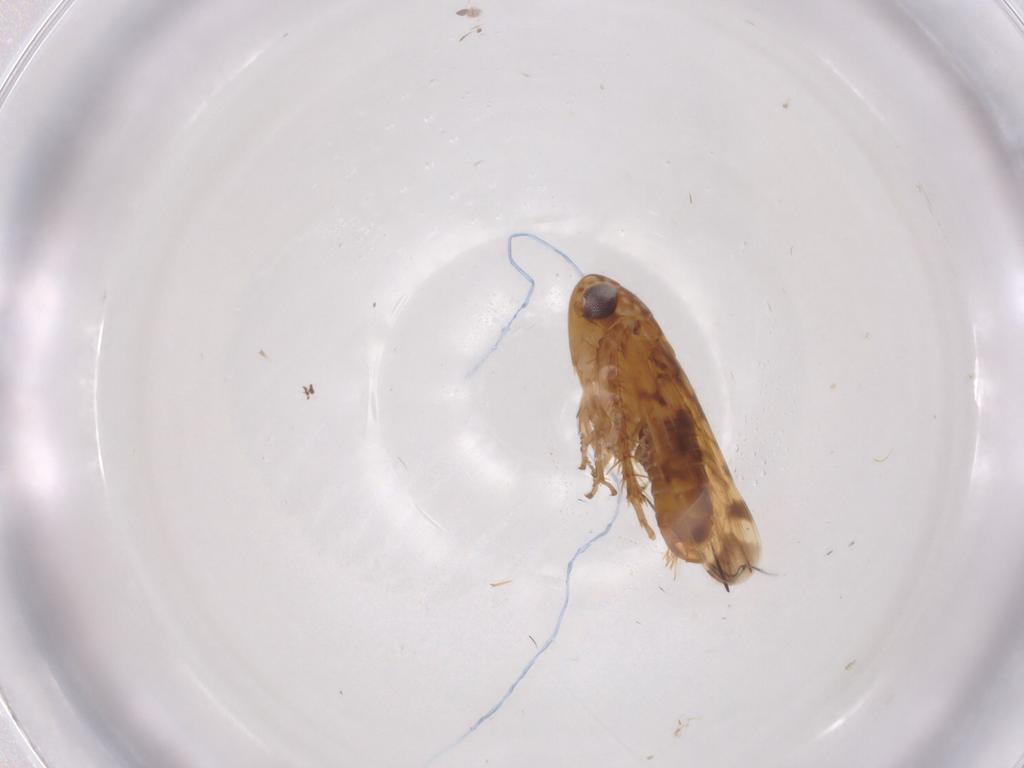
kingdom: Animalia
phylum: Arthropoda
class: Insecta
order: Hemiptera
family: Cicadellidae
